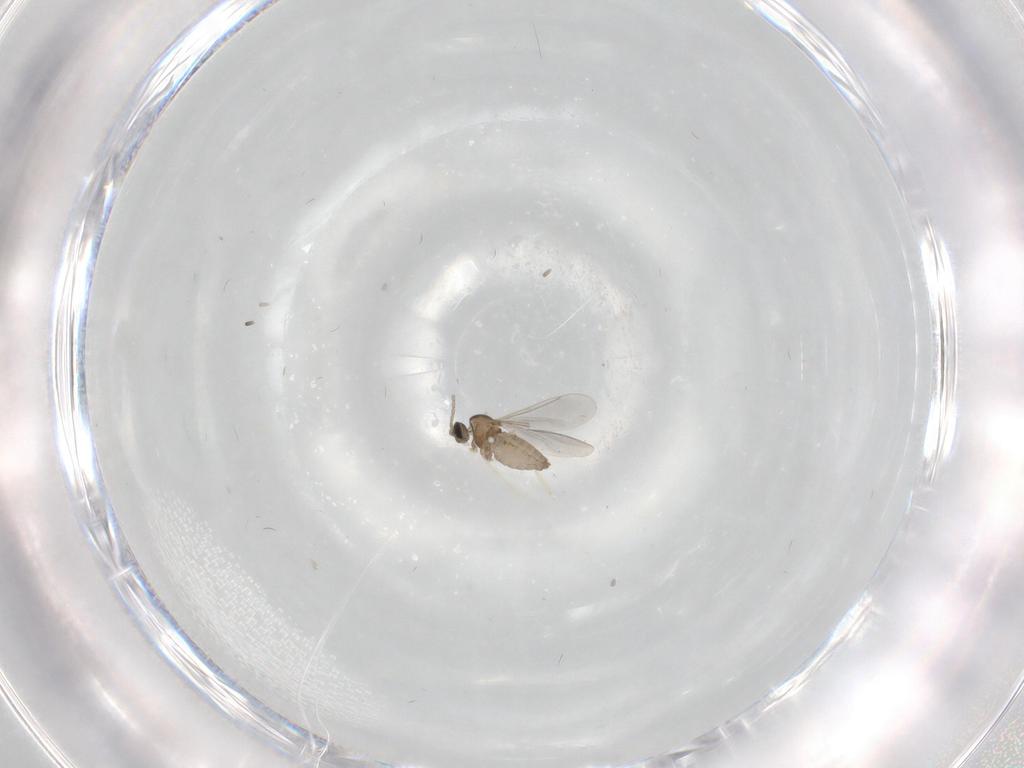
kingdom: Animalia
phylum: Arthropoda
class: Insecta
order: Diptera
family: Cecidomyiidae
